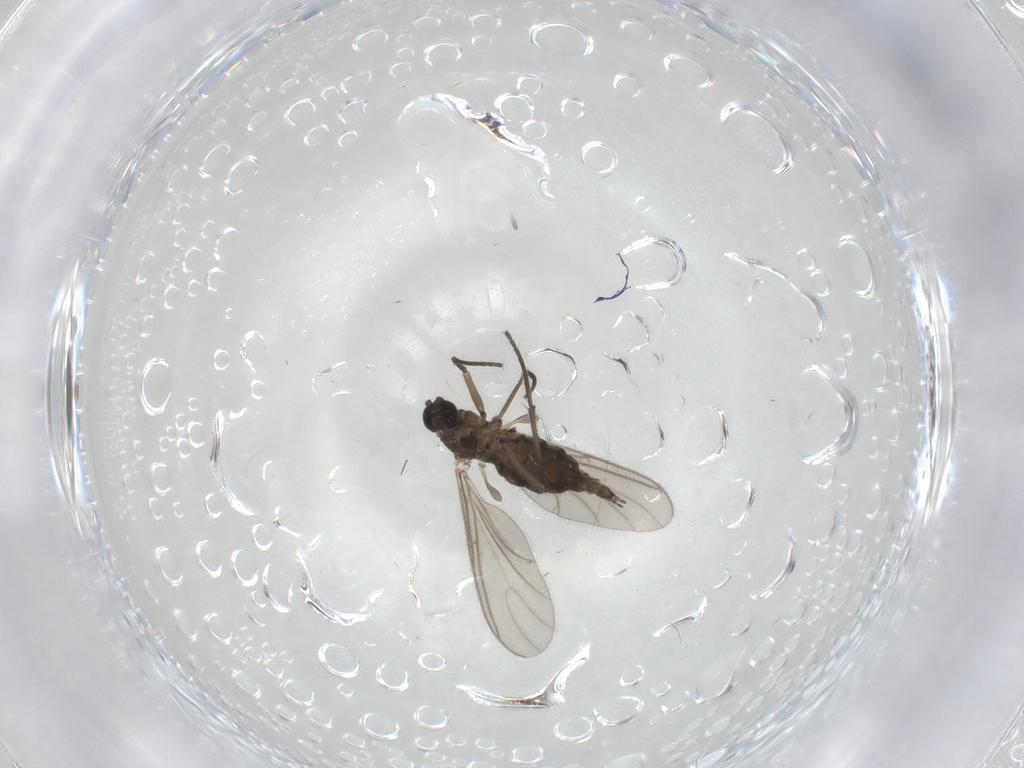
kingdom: Animalia
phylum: Arthropoda
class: Insecta
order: Diptera
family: Sciaridae
